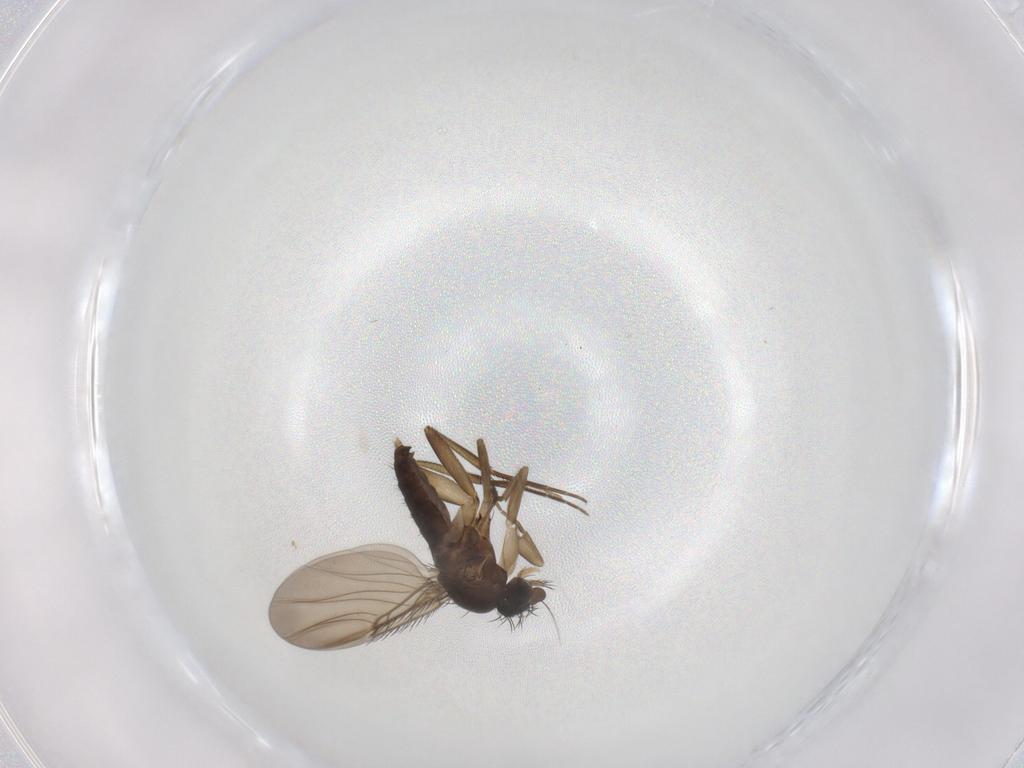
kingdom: Animalia
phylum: Arthropoda
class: Insecta
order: Diptera
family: Phoridae
